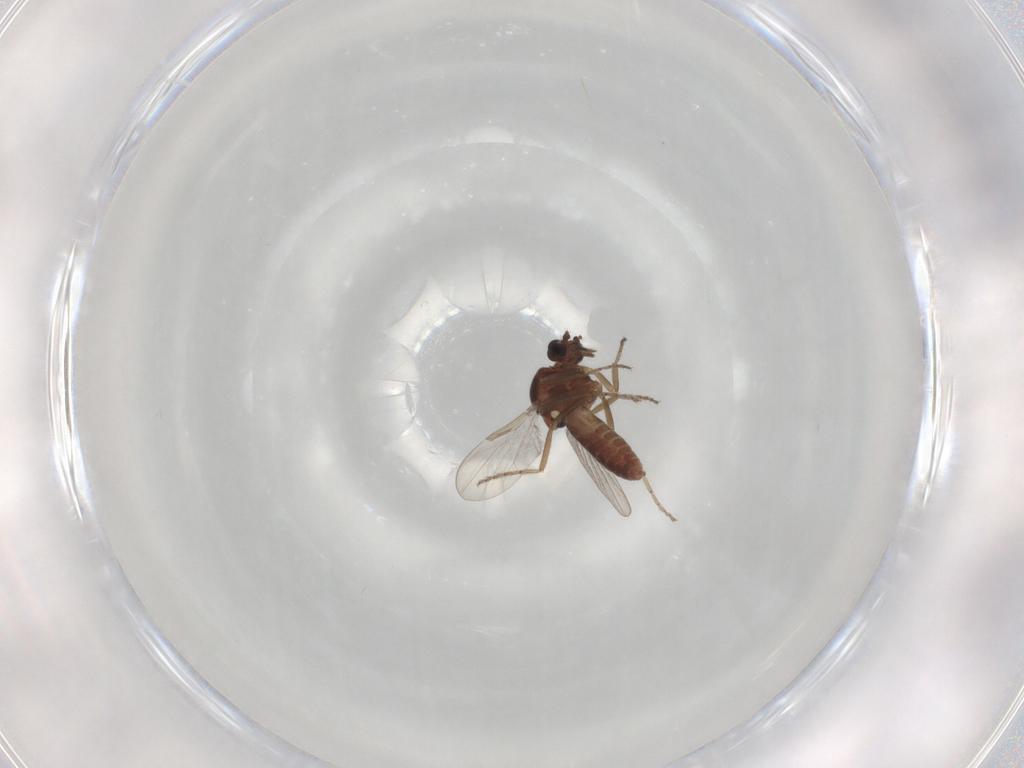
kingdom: Animalia
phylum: Arthropoda
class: Insecta
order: Diptera
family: Ceratopogonidae
